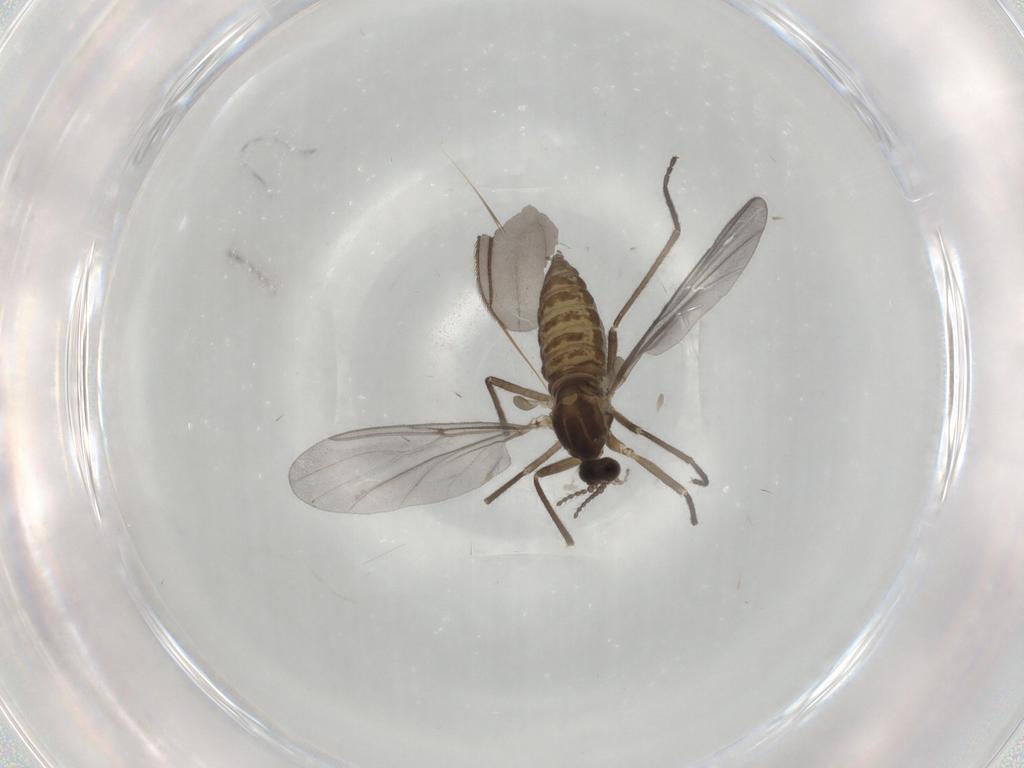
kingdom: Animalia
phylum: Arthropoda
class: Insecta
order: Diptera
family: Cecidomyiidae
